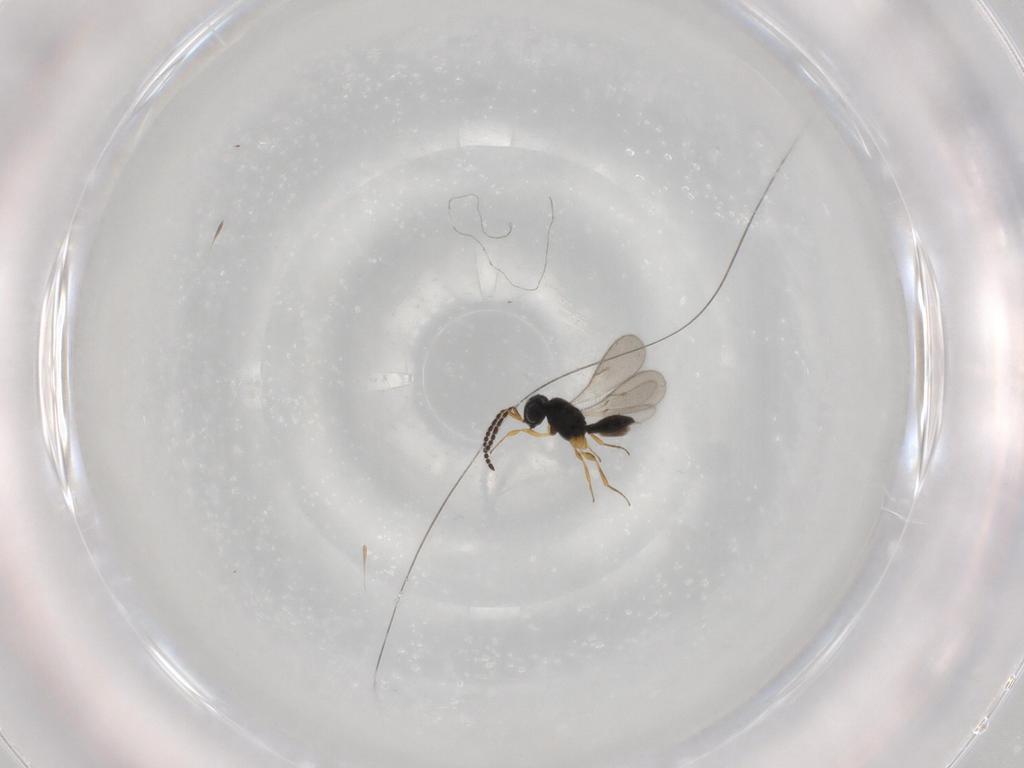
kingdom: Animalia
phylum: Arthropoda
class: Insecta
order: Hymenoptera
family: Scelionidae
